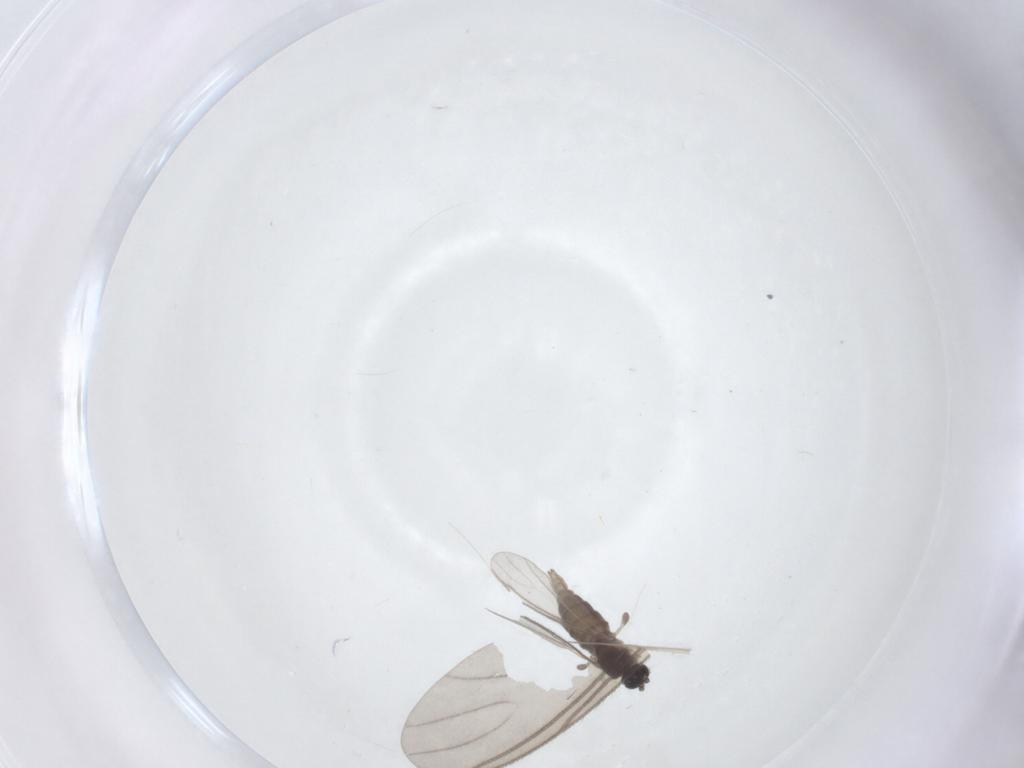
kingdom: Animalia
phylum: Arthropoda
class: Insecta
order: Diptera
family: Sciaridae
